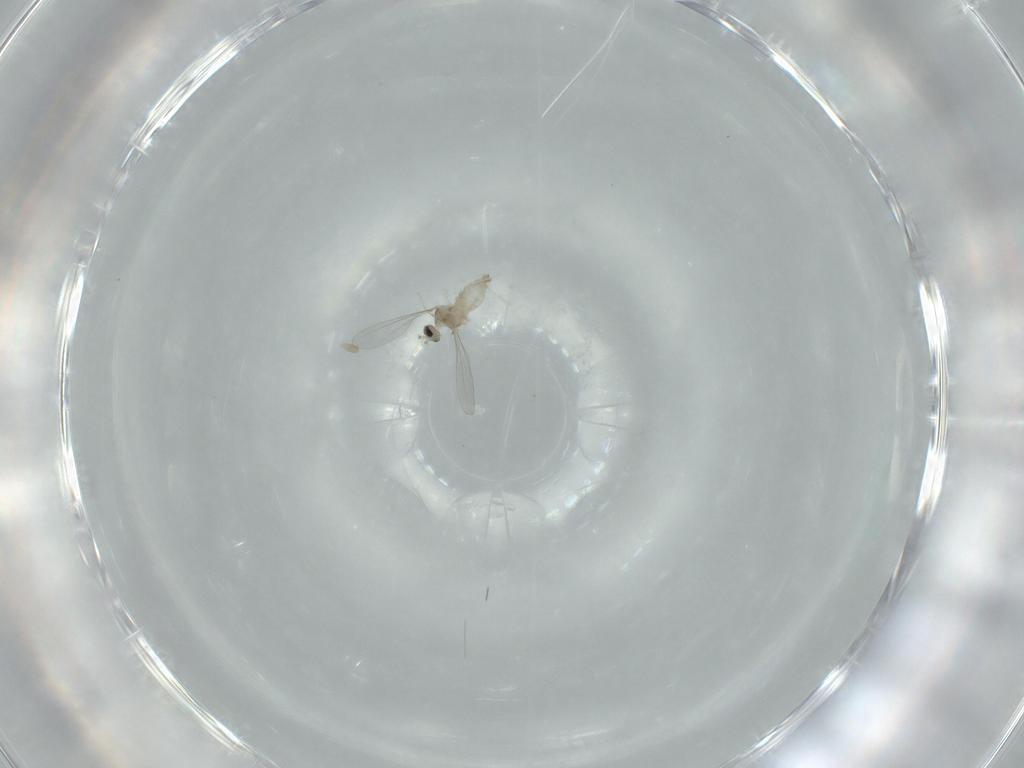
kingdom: Animalia
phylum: Arthropoda
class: Insecta
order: Diptera
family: Cecidomyiidae
